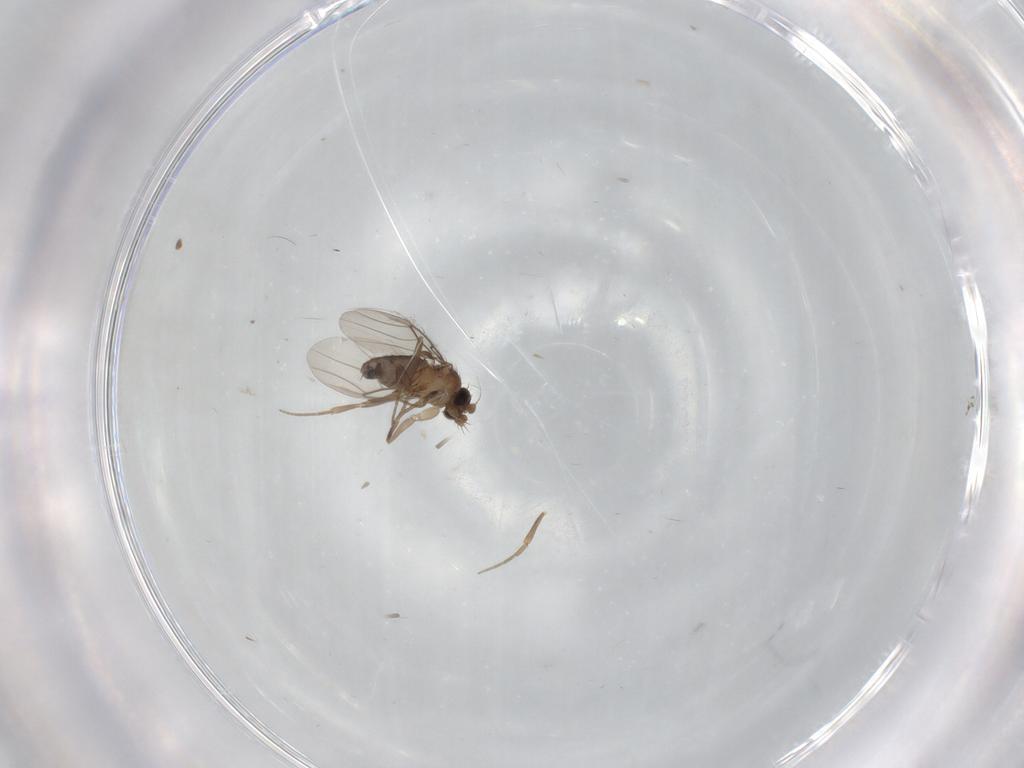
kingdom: Animalia
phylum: Arthropoda
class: Insecta
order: Diptera
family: Phoridae
